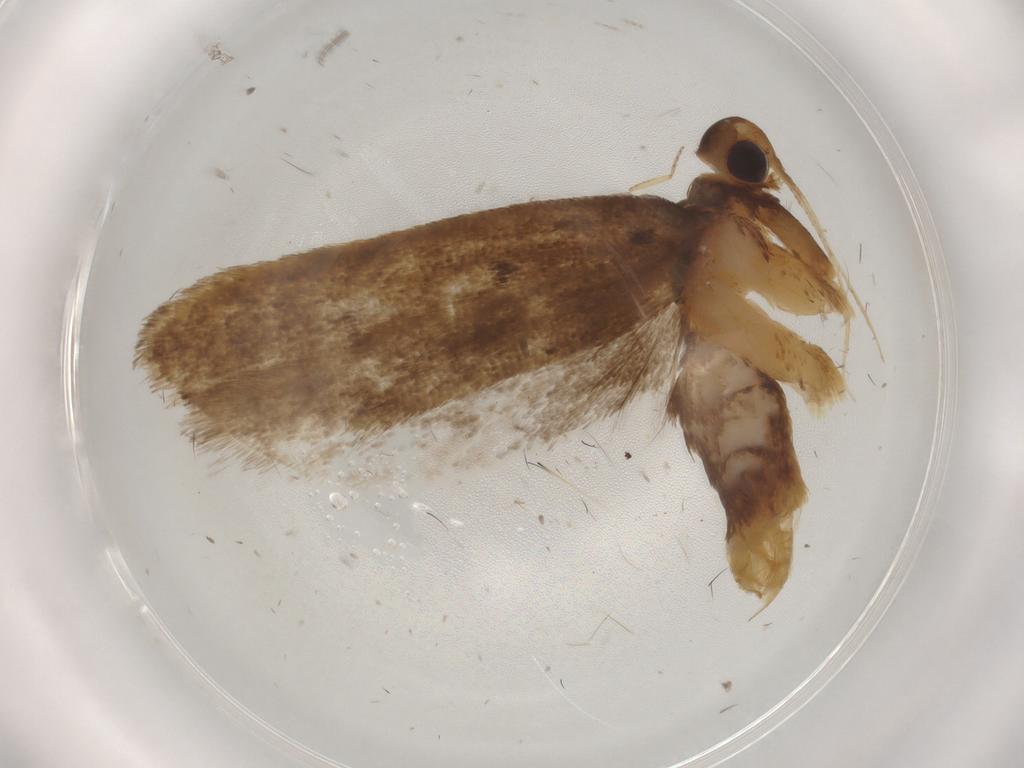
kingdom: Animalia
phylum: Arthropoda
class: Insecta
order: Lepidoptera
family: Lecithoceridae
